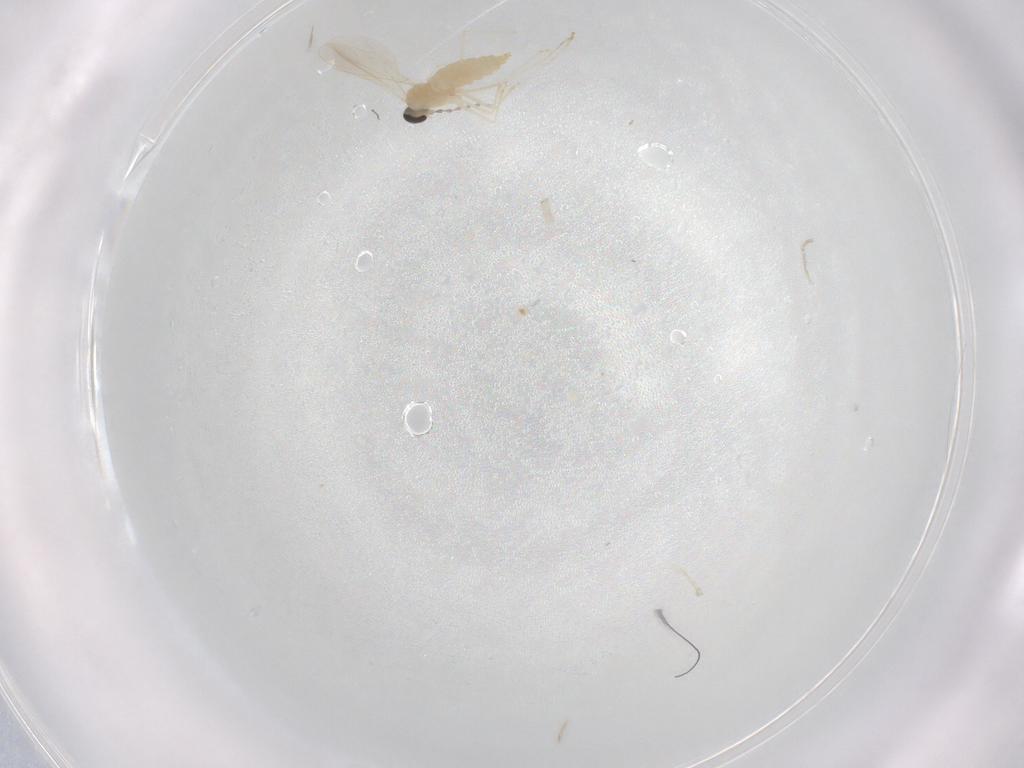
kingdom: Animalia
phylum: Arthropoda
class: Insecta
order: Diptera
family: Cecidomyiidae
